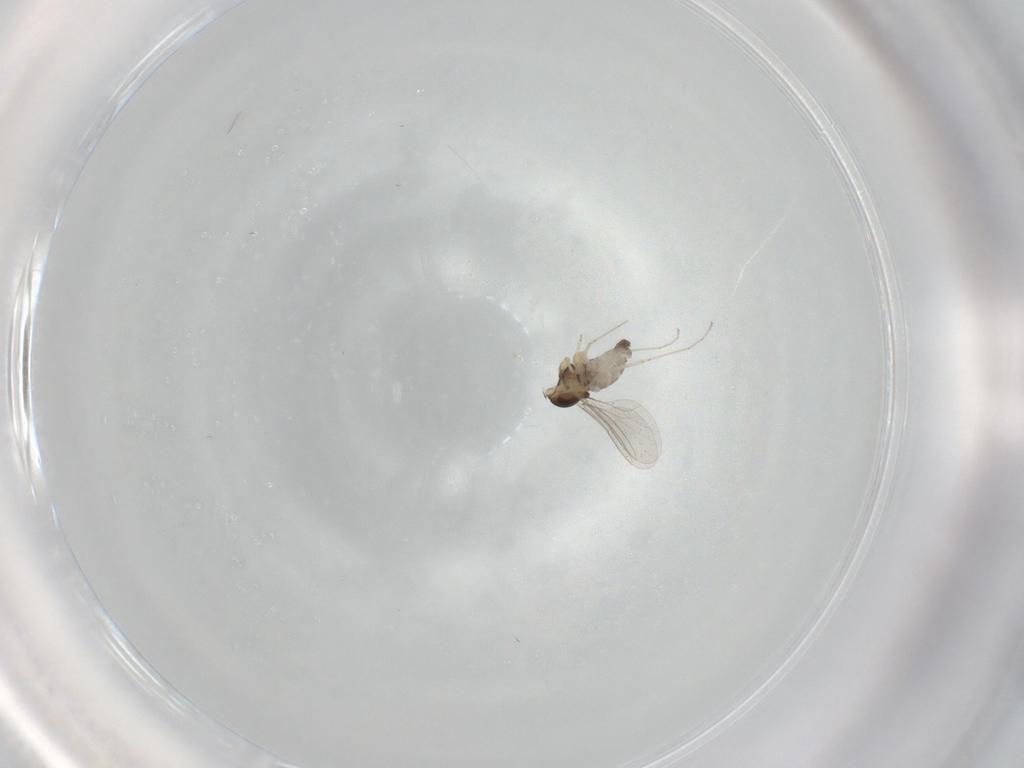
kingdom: Animalia
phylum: Arthropoda
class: Insecta
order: Diptera
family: Cecidomyiidae
